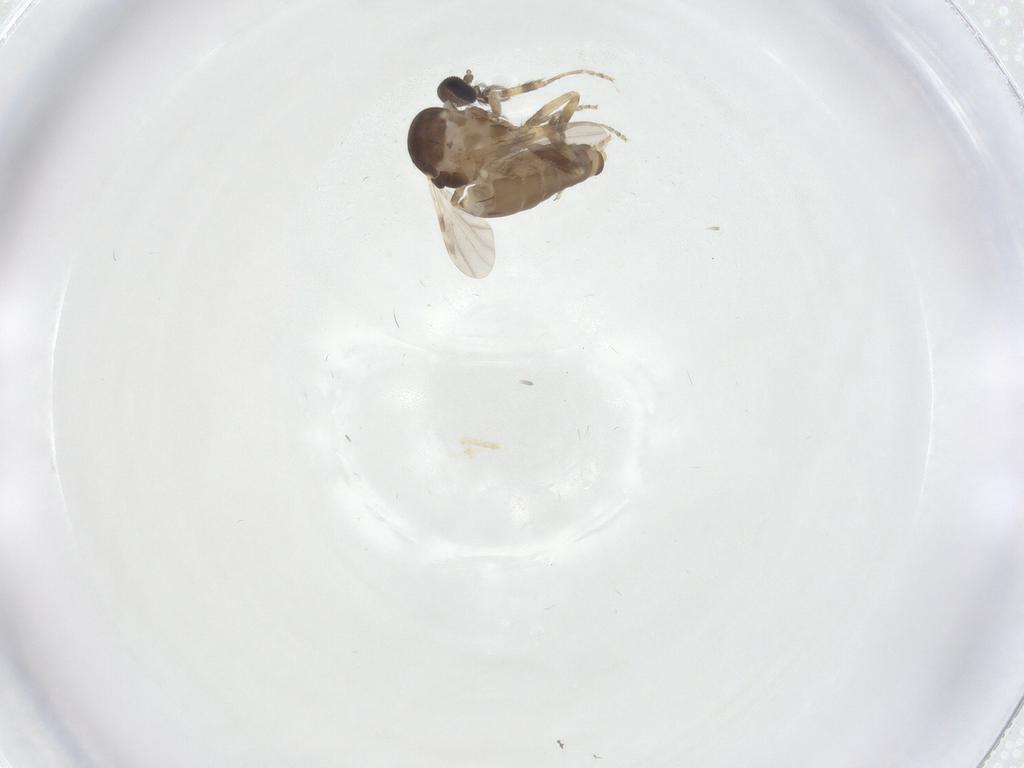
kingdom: Animalia
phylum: Arthropoda
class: Insecta
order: Diptera
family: Ceratopogonidae
